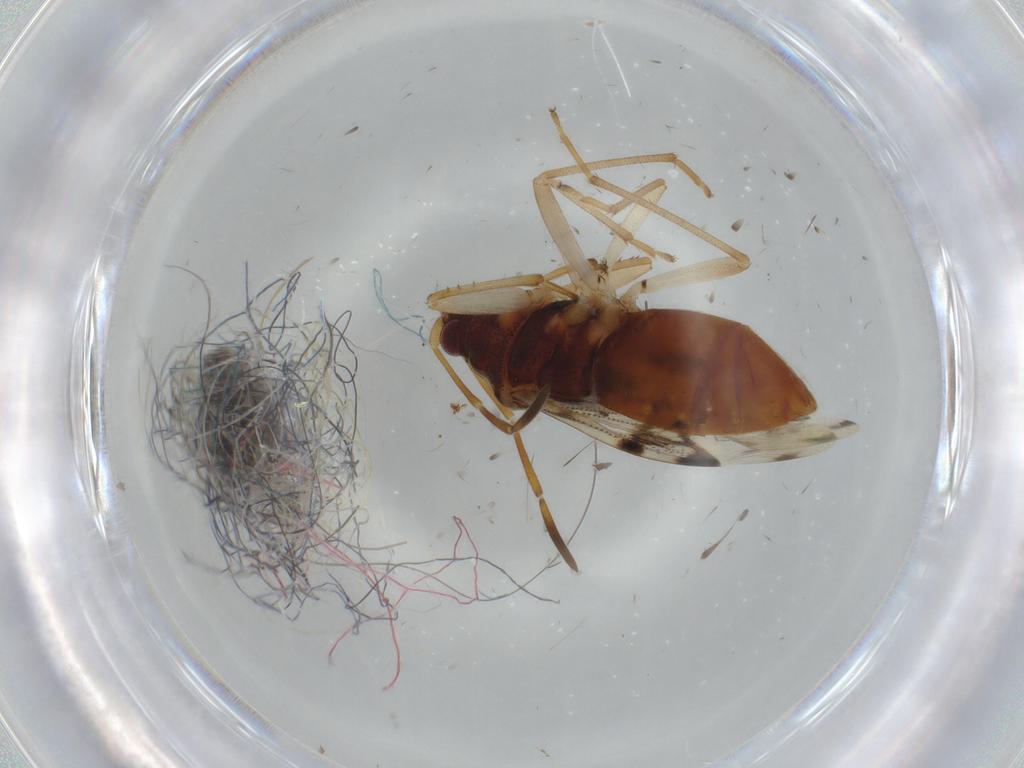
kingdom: Animalia
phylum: Arthropoda
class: Insecta
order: Hemiptera
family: Rhyparochromidae
